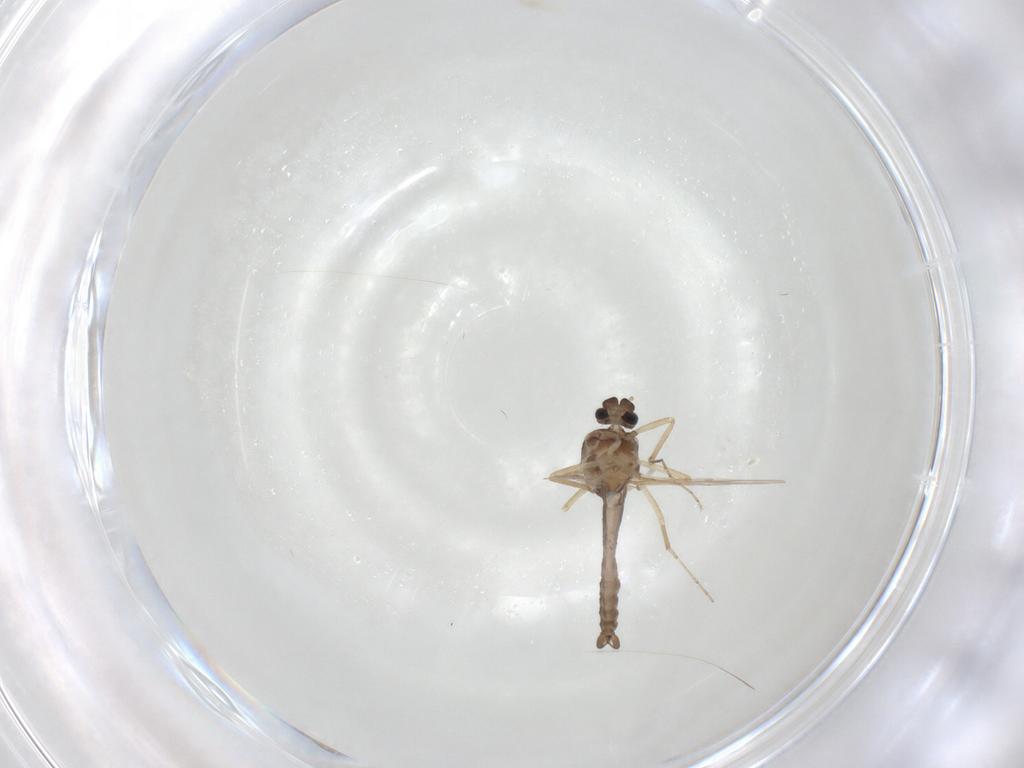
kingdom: Animalia
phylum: Arthropoda
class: Insecta
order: Diptera
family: Ceratopogonidae
